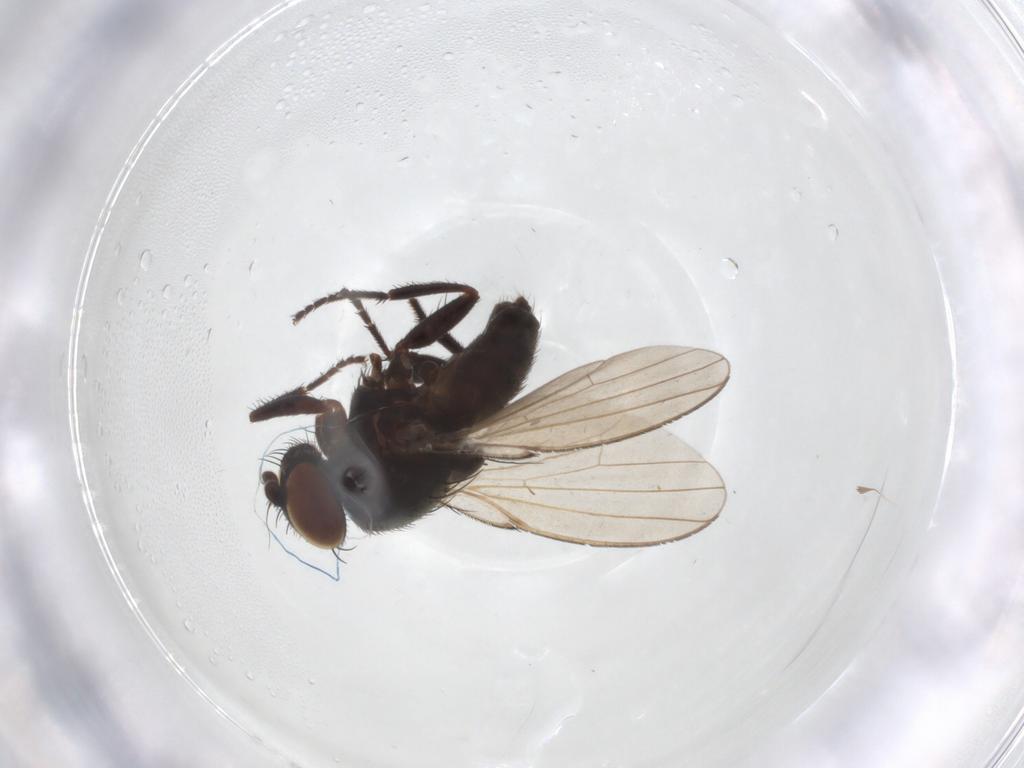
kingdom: Animalia
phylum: Arthropoda
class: Insecta
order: Diptera
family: Milichiidae
